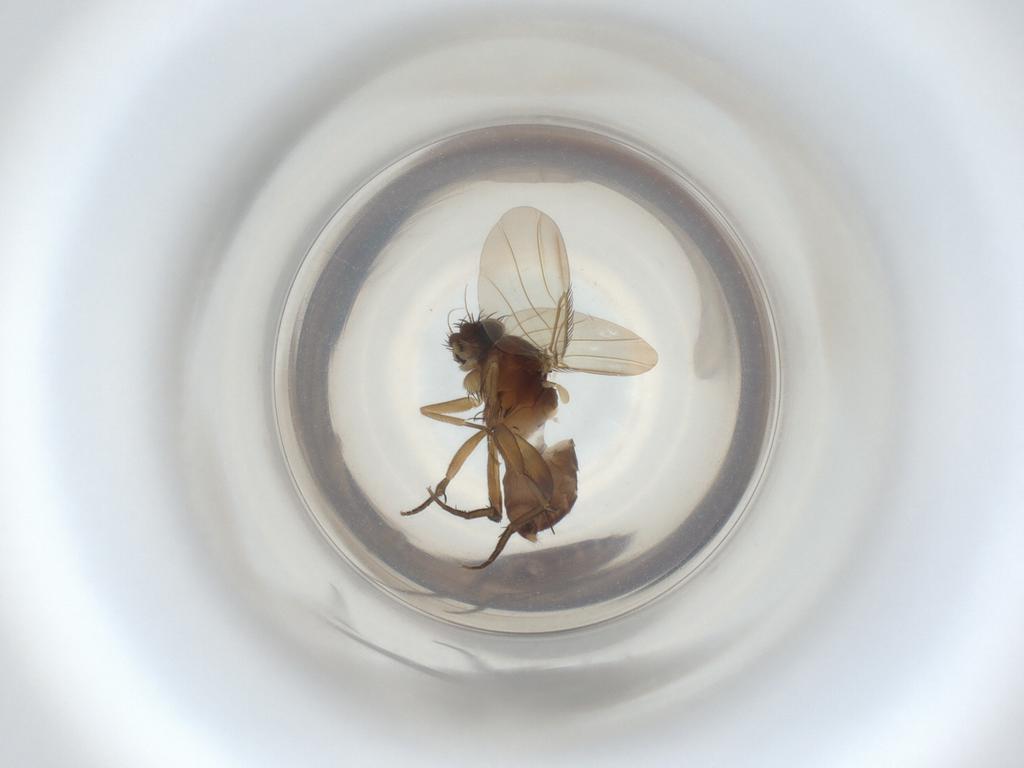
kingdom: Animalia
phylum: Arthropoda
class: Insecta
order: Diptera
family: Phoridae
